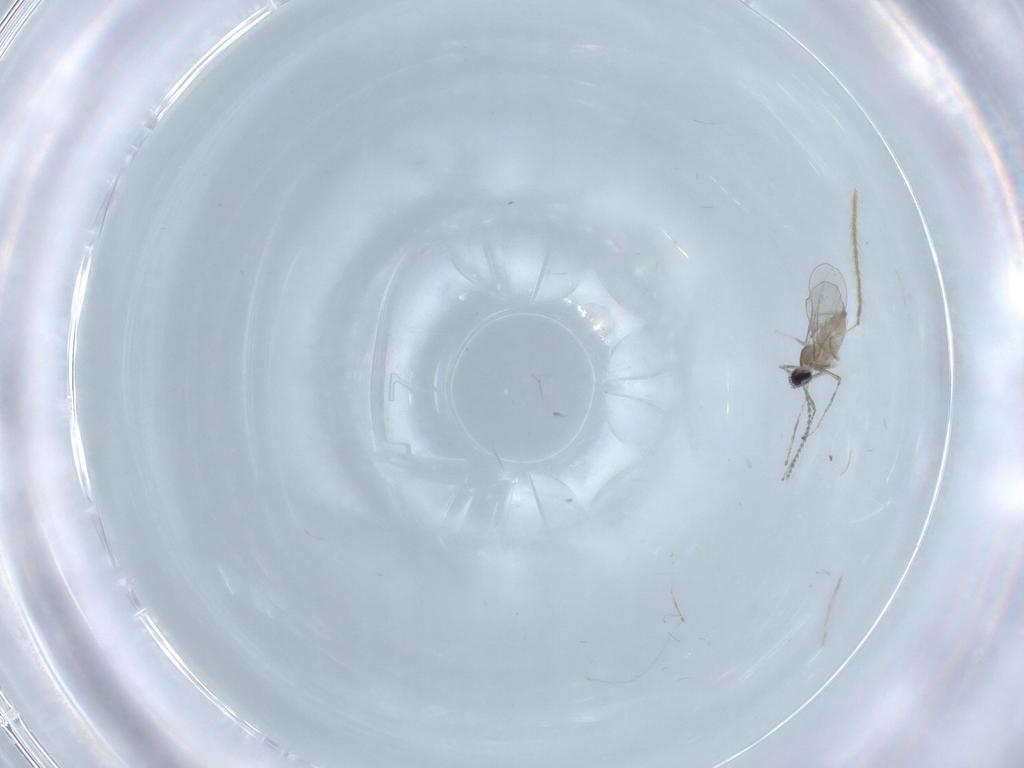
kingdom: Animalia
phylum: Arthropoda
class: Insecta
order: Diptera
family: Cecidomyiidae
